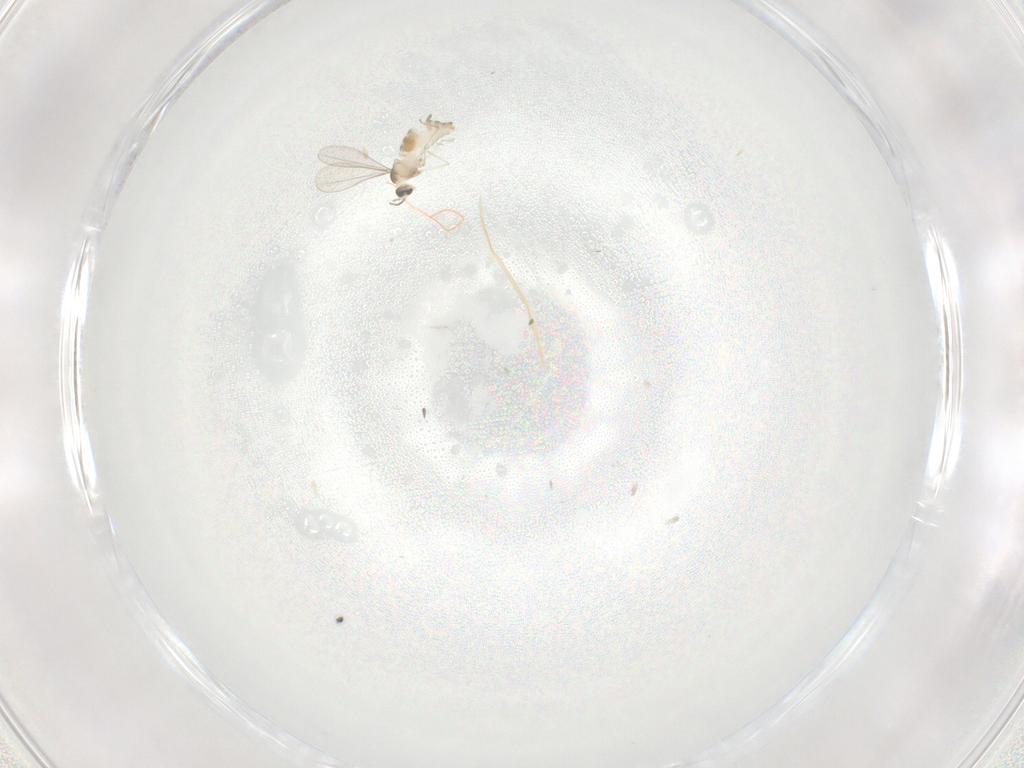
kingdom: Animalia
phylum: Arthropoda
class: Insecta
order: Diptera
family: Cecidomyiidae
